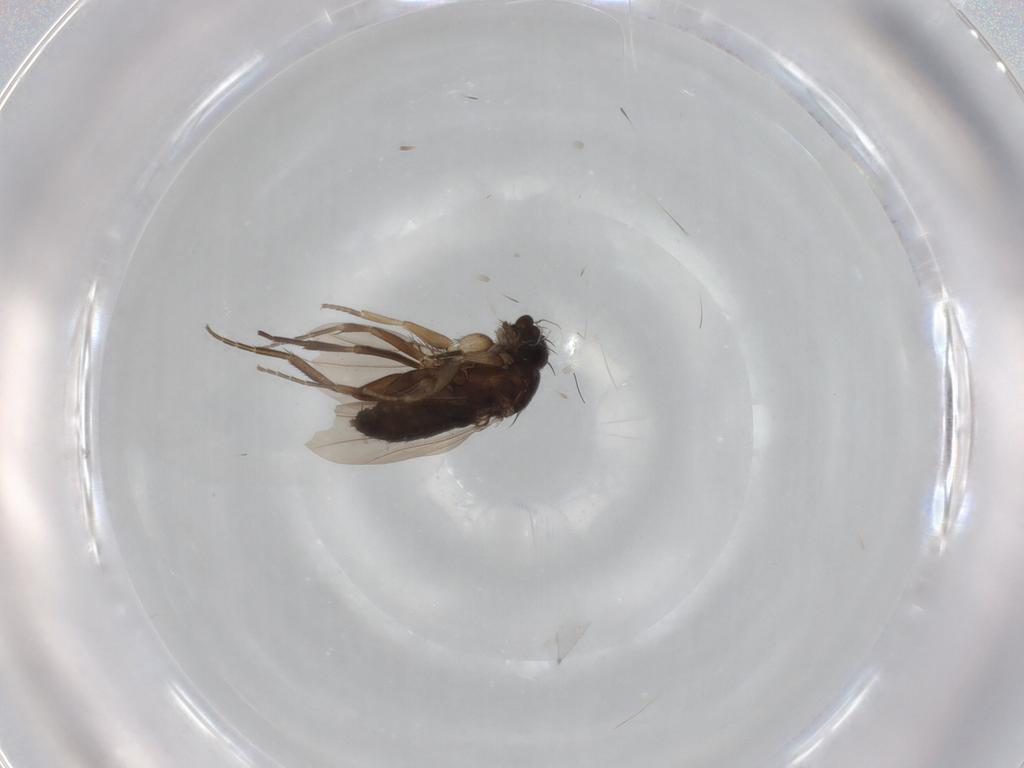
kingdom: Animalia
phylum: Arthropoda
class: Insecta
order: Diptera
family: Phoridae
